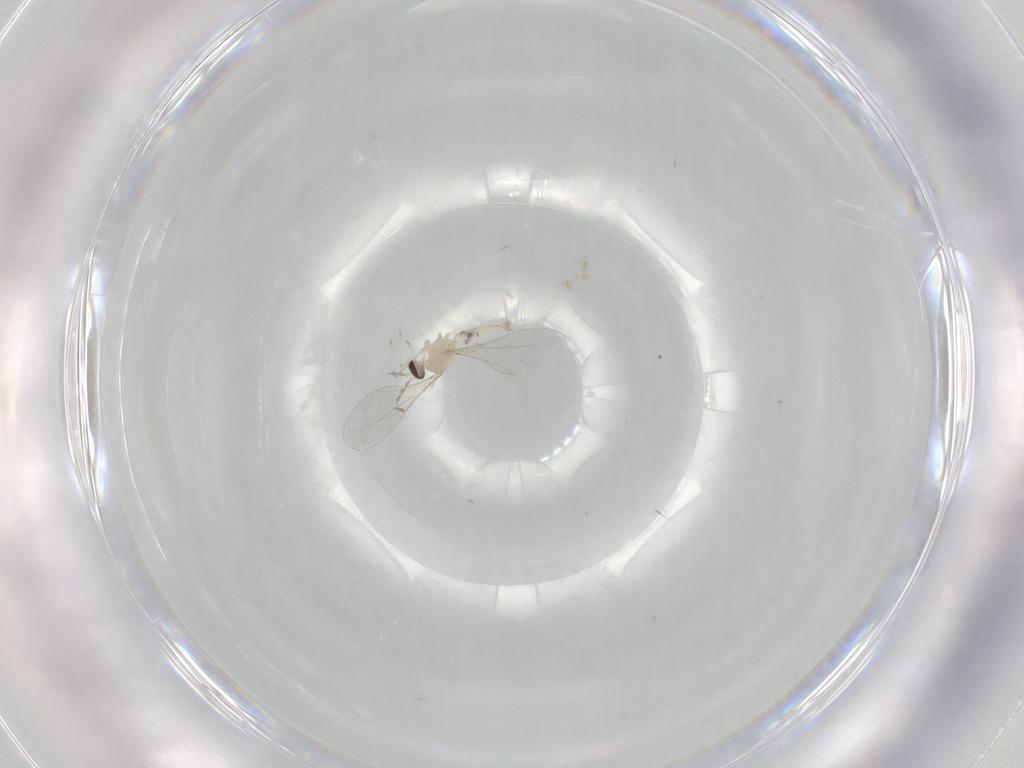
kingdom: Animalia
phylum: Arthropoda
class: Insecta
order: Diptera
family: Cecidomyiidae
